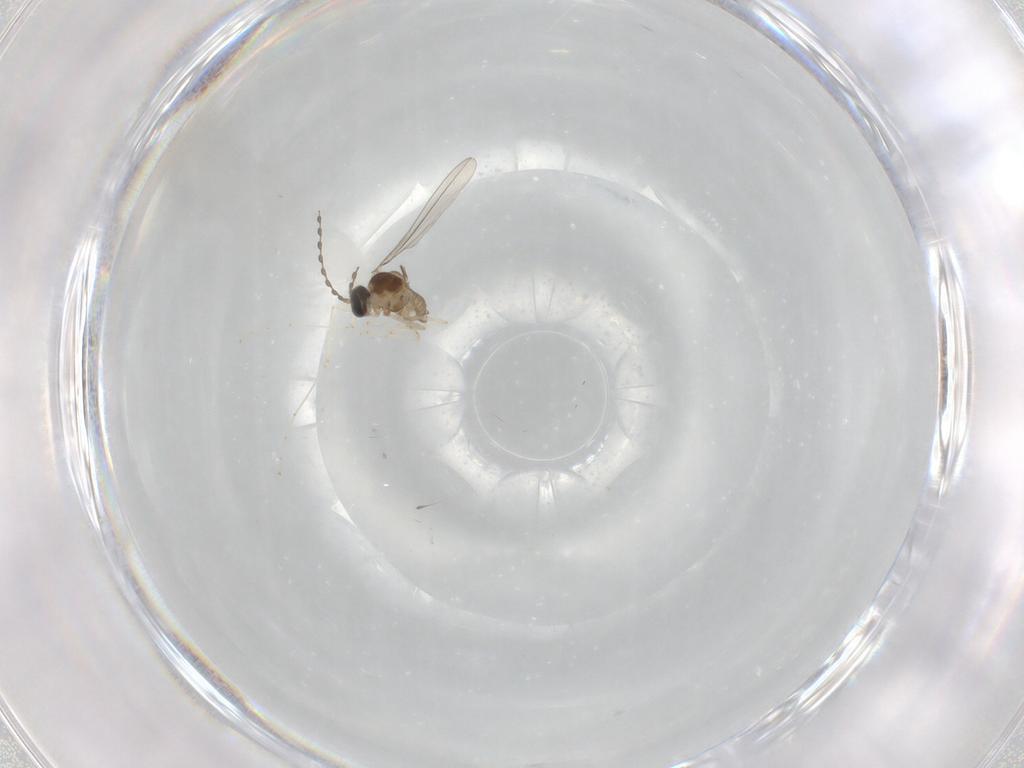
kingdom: Animalia
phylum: Arthropoda
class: Insecta
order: Diptera
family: Cecidomyiidae
